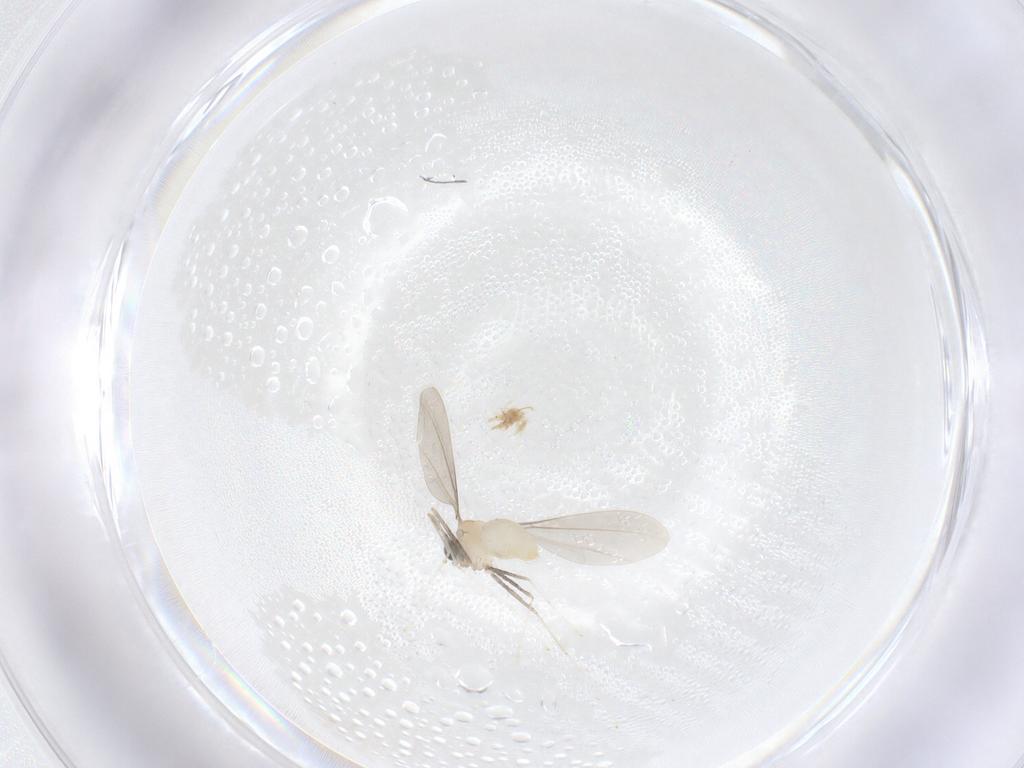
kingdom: Animalia
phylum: Arthropoda
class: Insecta
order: Diptera
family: Cecidomyiidae
